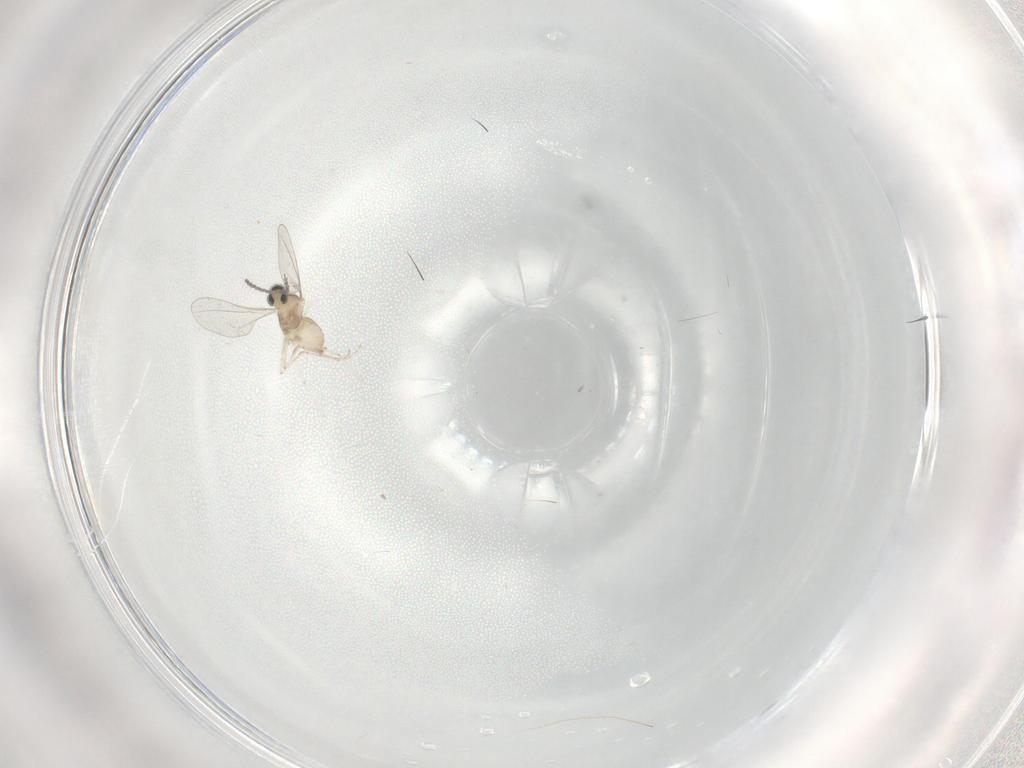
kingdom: Animalia
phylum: Arthropoda
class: Insecta
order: Diptera
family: Cecidomyiidae
